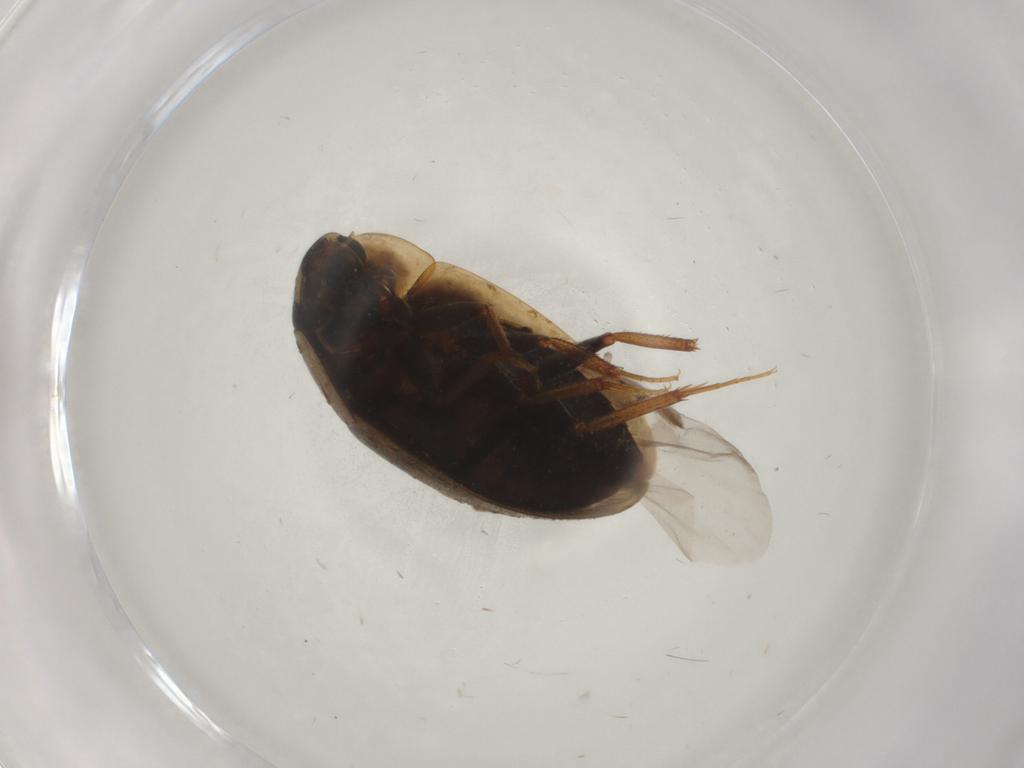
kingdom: Animalia
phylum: Arthropoda
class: Insecta
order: Coleoptera
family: Hydrophilidae
